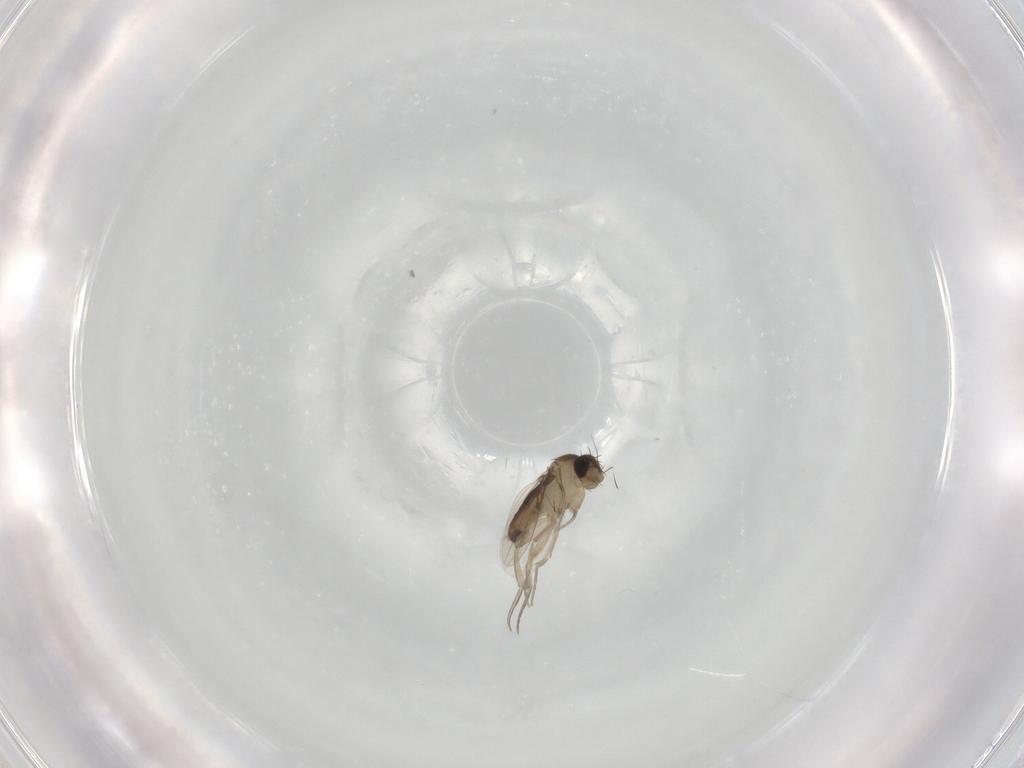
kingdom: Animalia
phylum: Arthropoda
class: Insecta
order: Diptera
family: Phoridae
